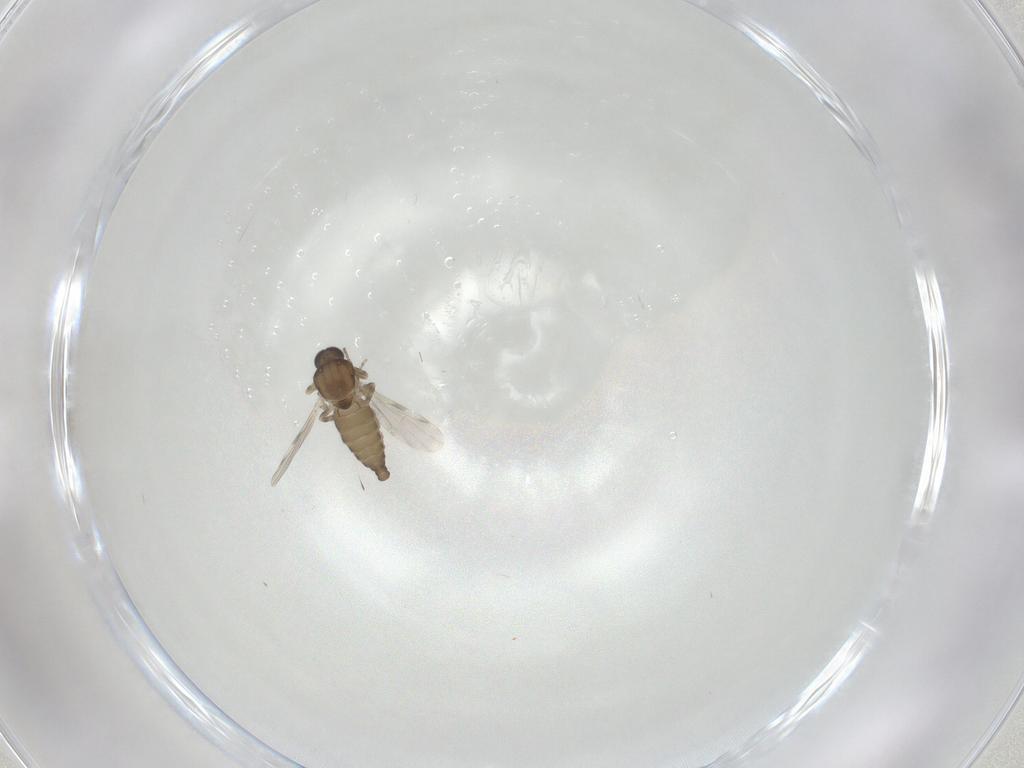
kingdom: Animalia
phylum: Arthropoda
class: Insecta
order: Diptera
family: Ceratopogonidae
